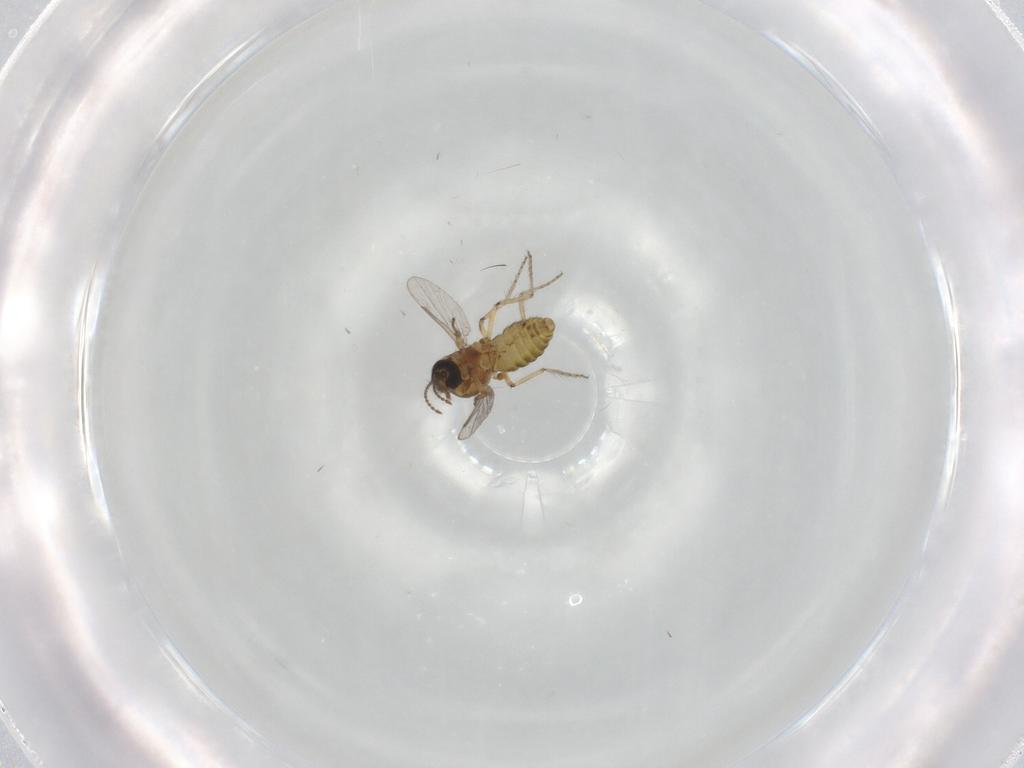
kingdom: Animalia
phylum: Arthropoda
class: Insecta
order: Diptera
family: Ceratopogonidae
